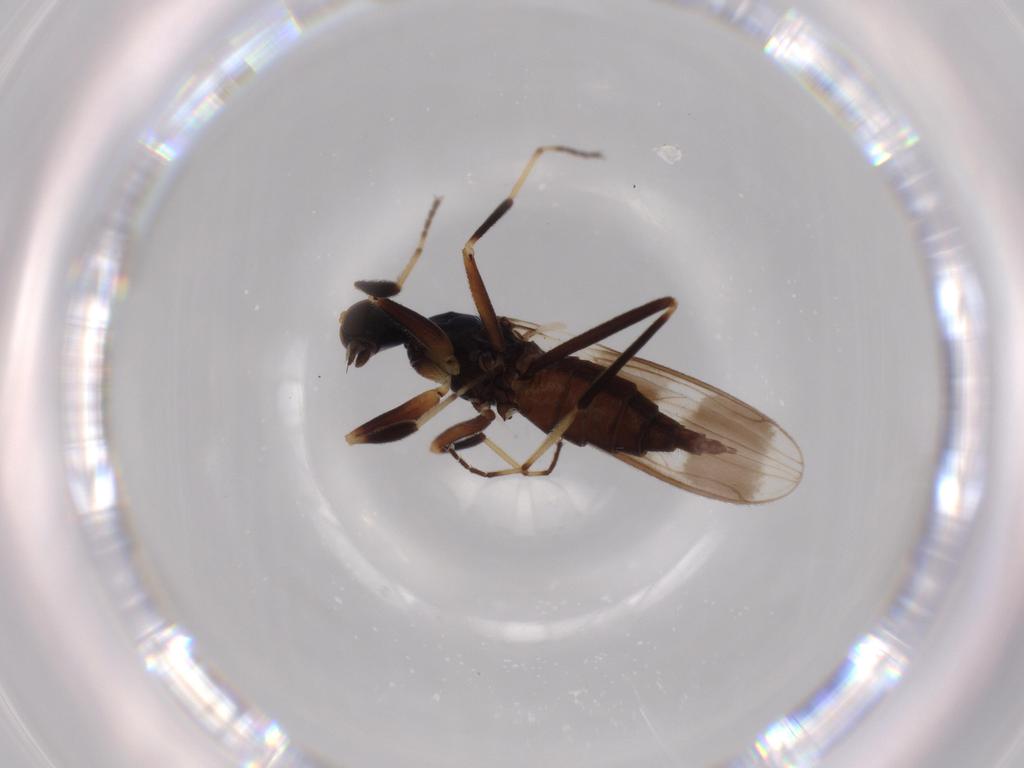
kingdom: Animalia
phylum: Arthropoda
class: Insecta
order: Diptera
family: Hybotidae
